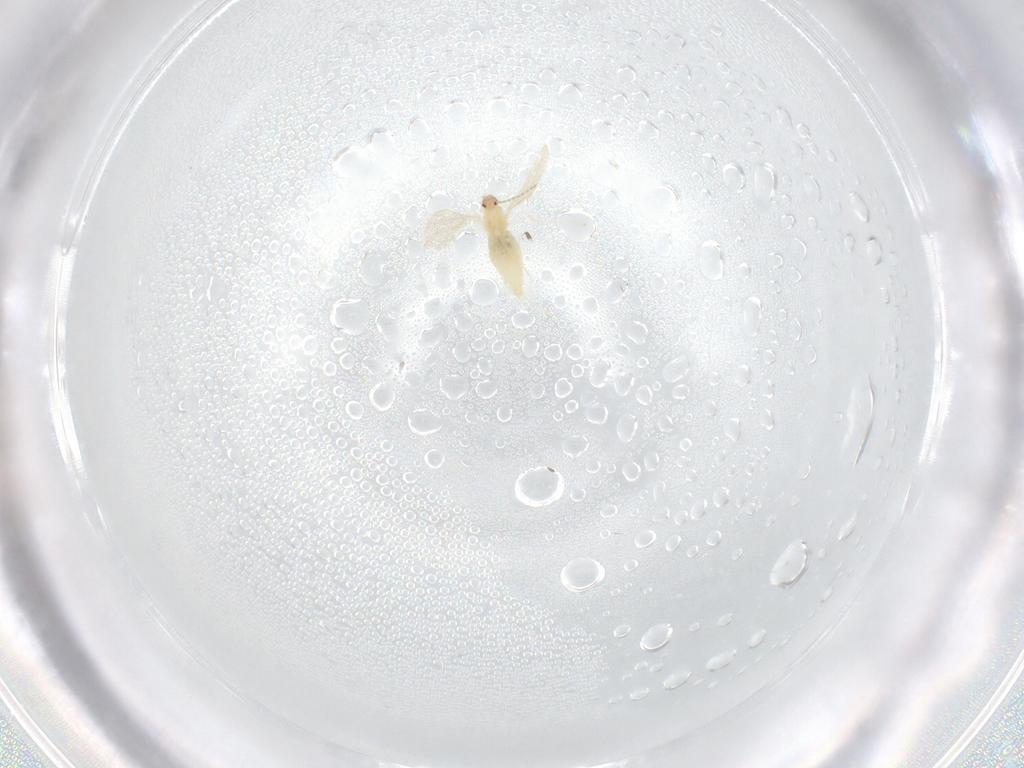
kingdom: Animalia
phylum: Arthropoda
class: Insecta
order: Diptera
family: Cecidomyiidae
